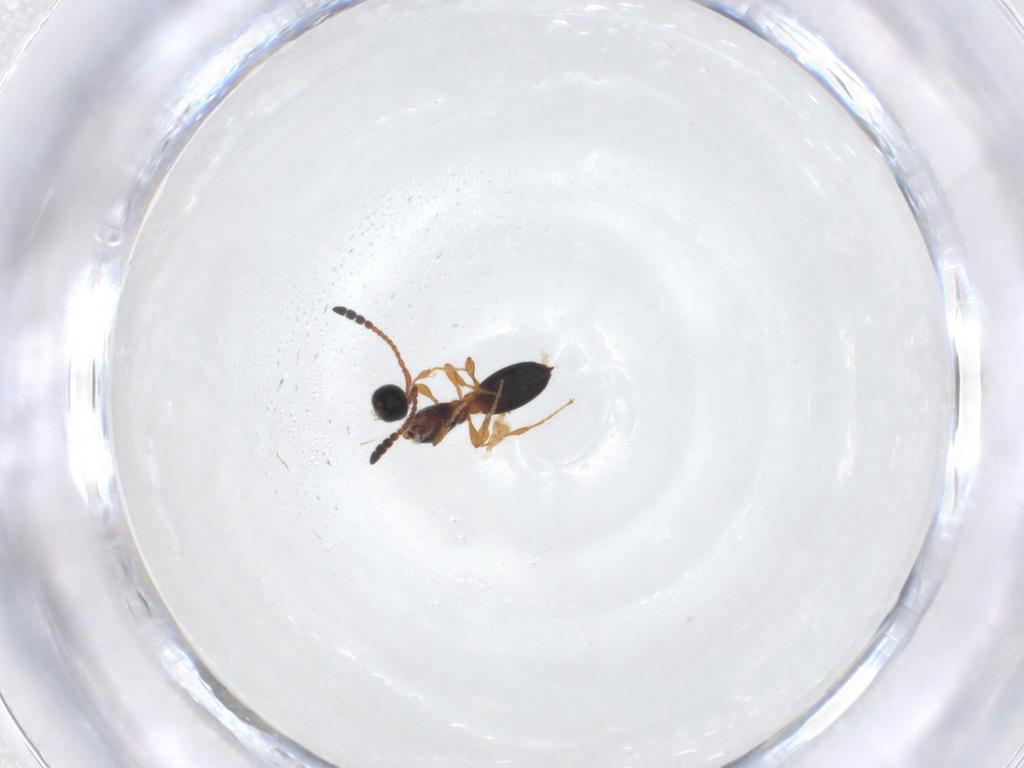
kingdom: Animalia
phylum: Arthropoda
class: Insecta
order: Hymenoptera
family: Diapriidae
